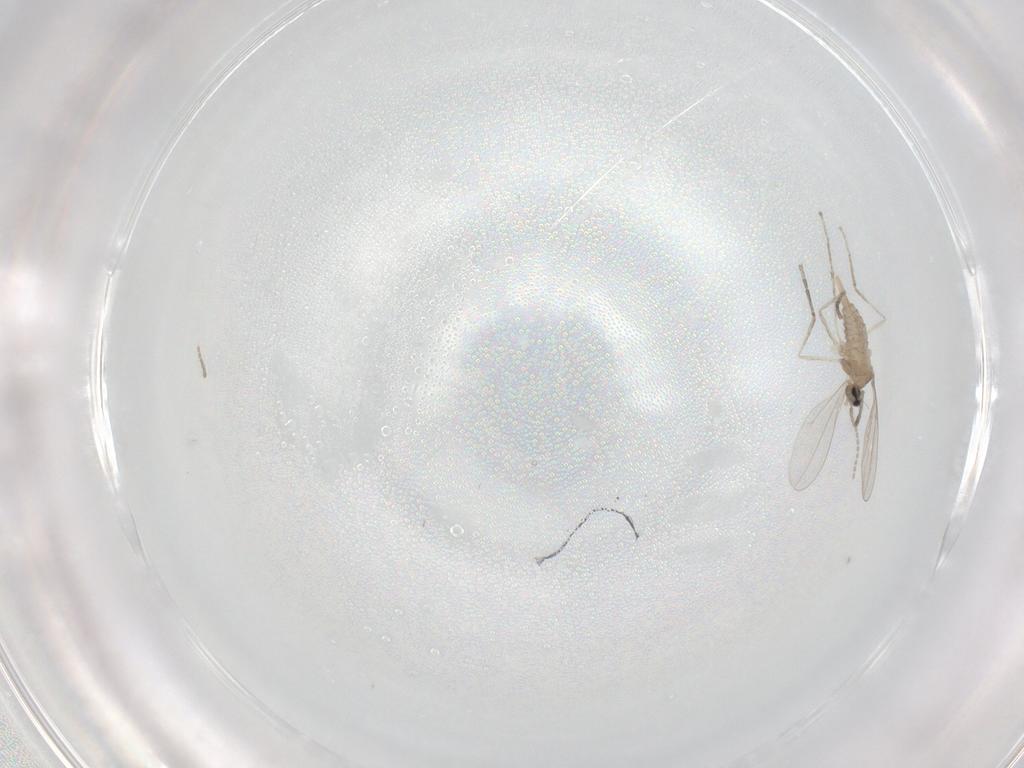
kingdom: Animalia
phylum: Arthropoda
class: Insecta
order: Diptera
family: Ceratopogonidae
